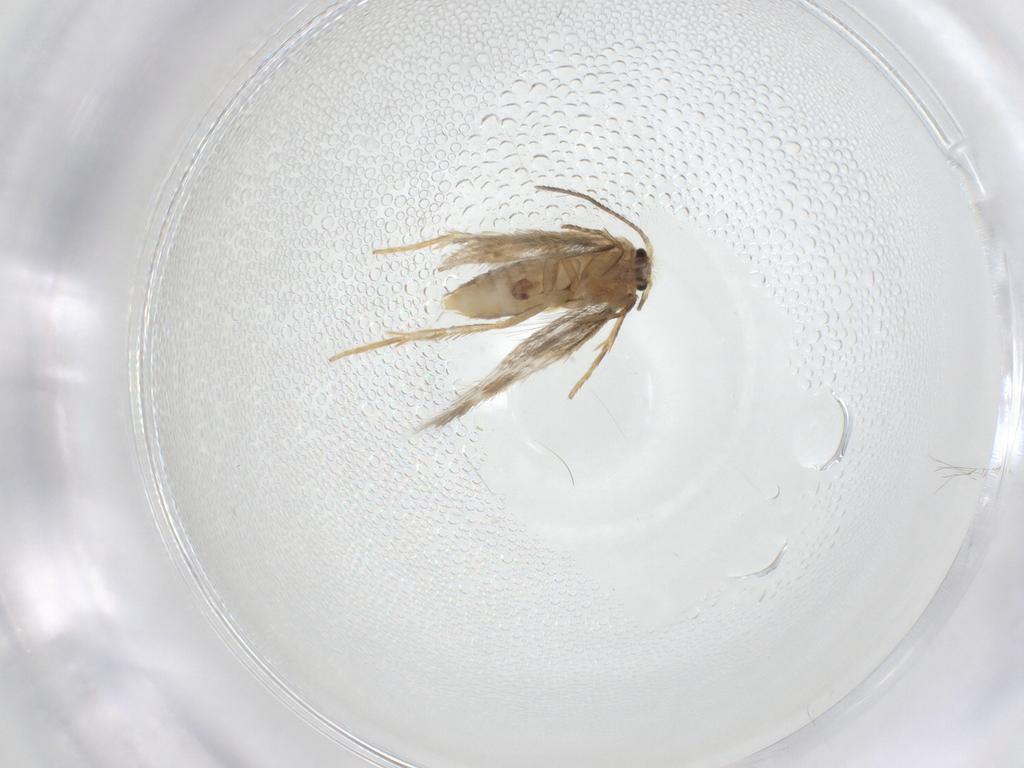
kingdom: Animalia
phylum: Arthropoda
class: Insecta
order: Lepidoptera
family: Nepticulidae
